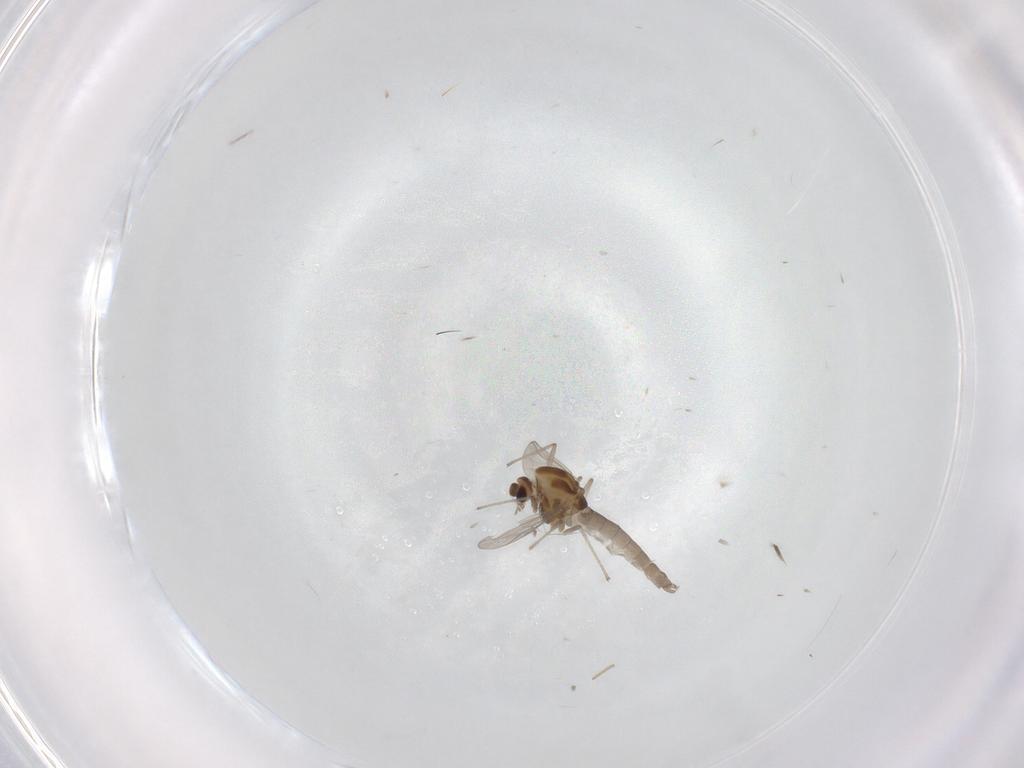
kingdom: Animalia
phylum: Arthropoda
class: Insecta
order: Diptera
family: Chironomidae
